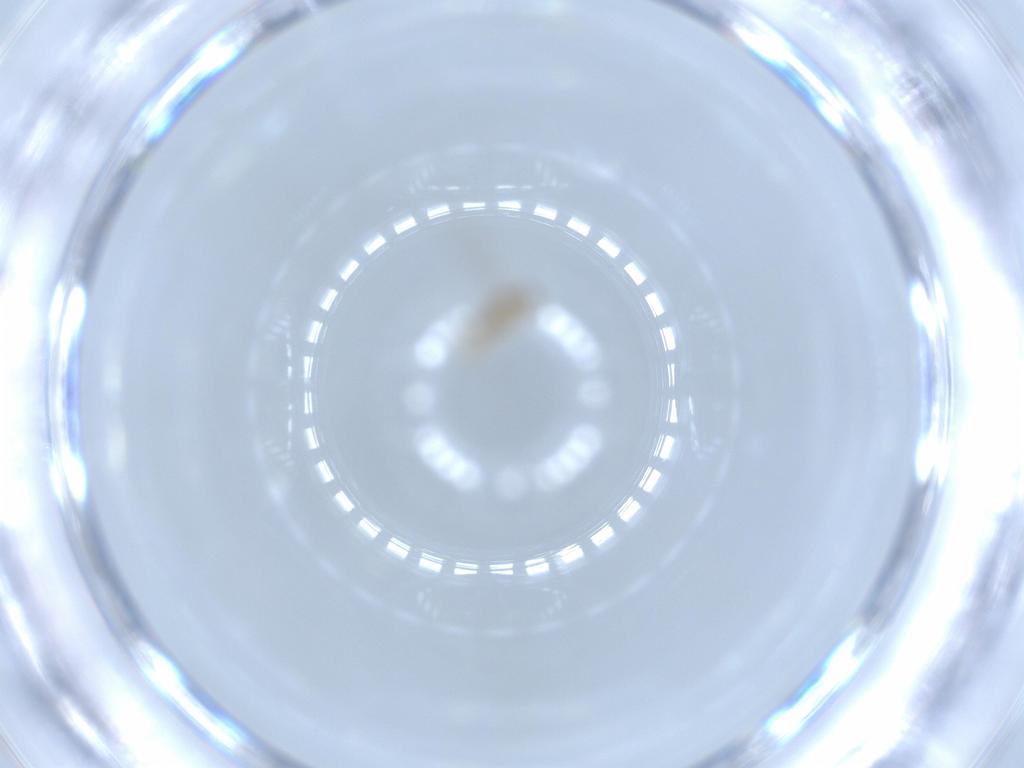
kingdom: Animalia
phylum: Arthropoda
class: Insecta
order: Diptera
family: Cecidomyiidae
